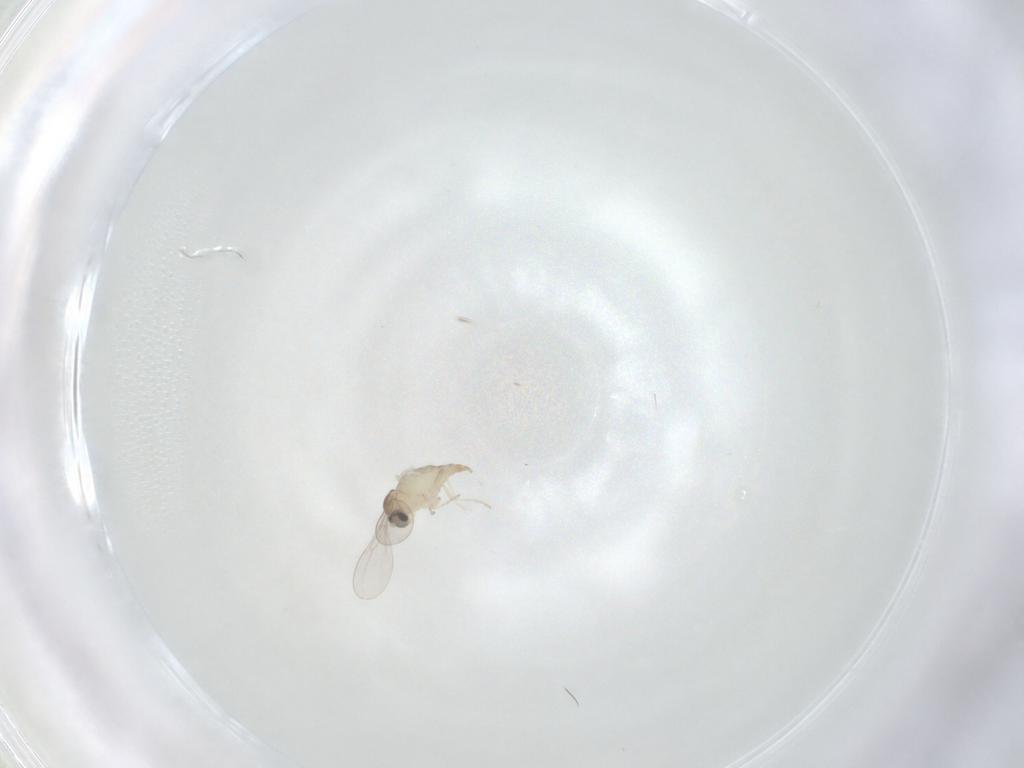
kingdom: Animalia
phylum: Arthropoda
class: Insecta
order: Diptera
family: Cecidomyiidae
